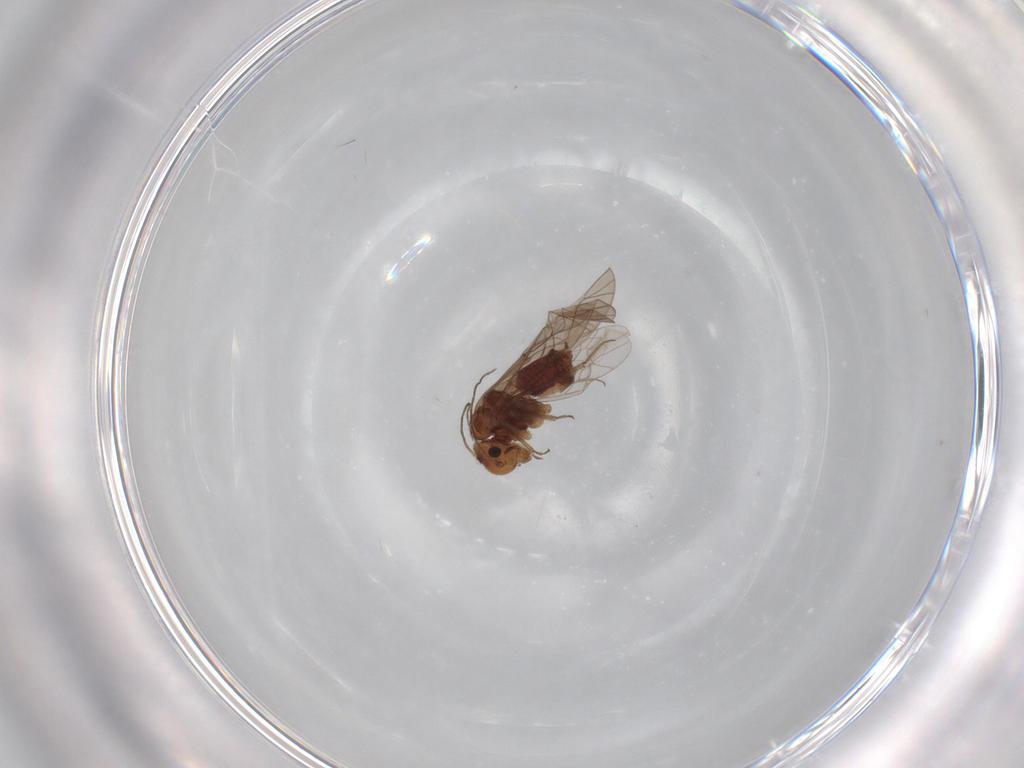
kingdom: Animalia
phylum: Arthropoda
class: Insecta
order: Psocodea
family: Lachesillidae
